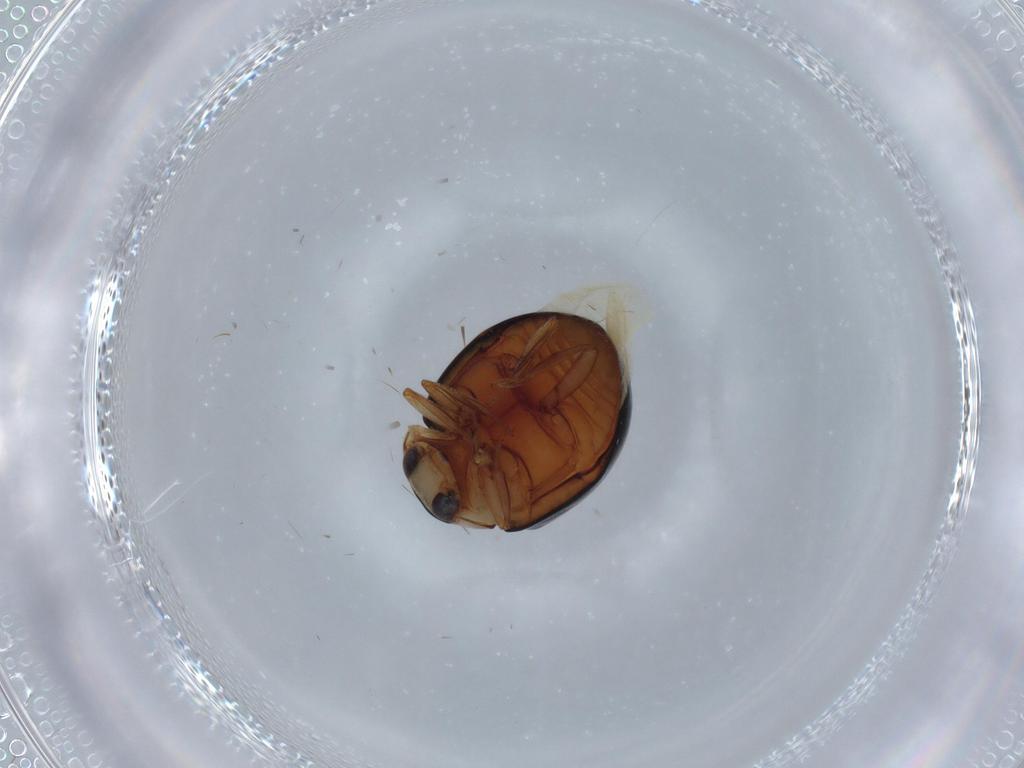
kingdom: Animalia
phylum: Arthropoda
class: Insecta
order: Coleoptera
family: Coccinellidae
